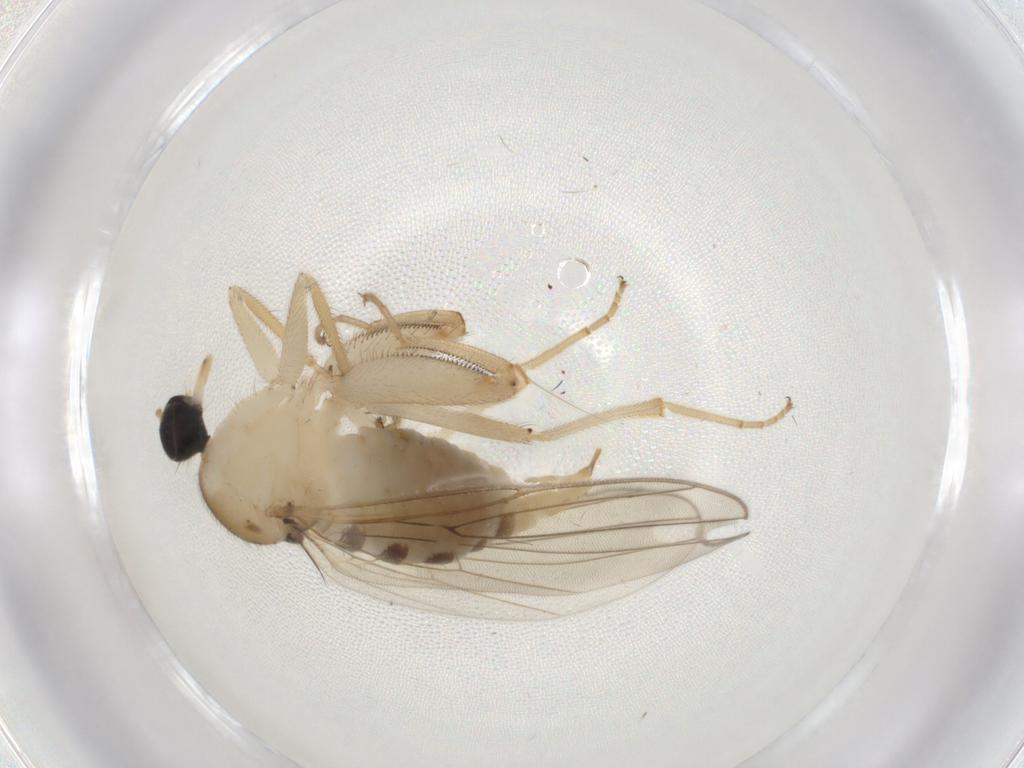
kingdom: Animalia
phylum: Arthropoda
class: Insecta
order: Diptera
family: Hybotidae
